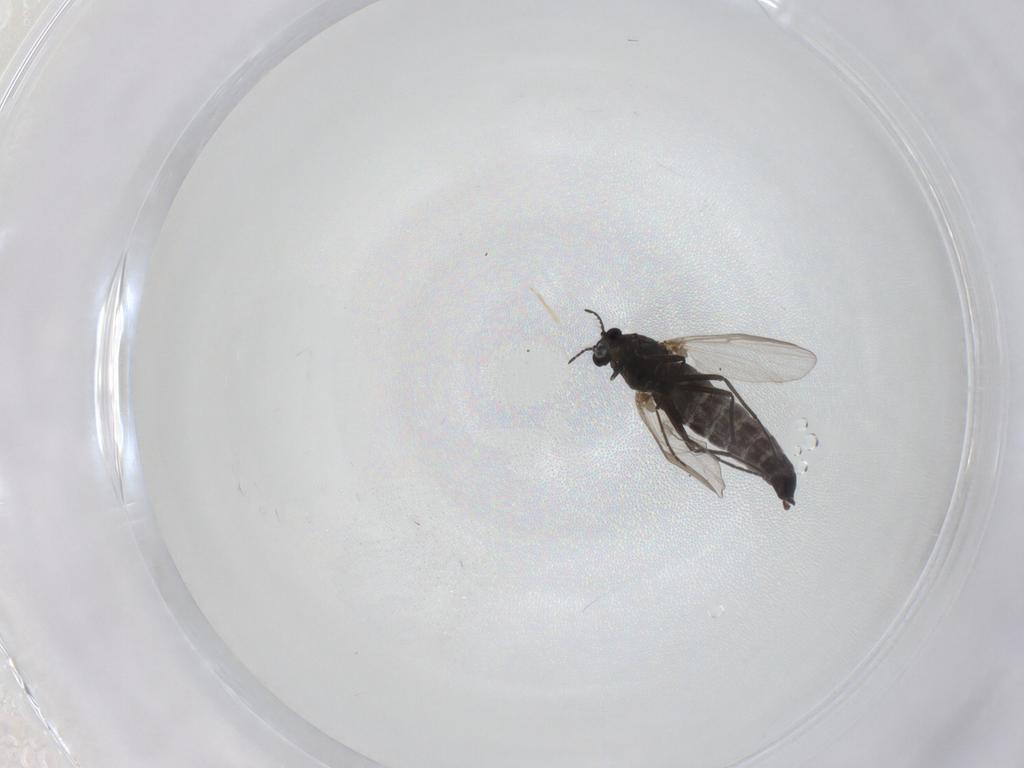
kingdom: Animalia
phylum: Arthropoda
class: Insecta
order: Diptera
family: Chironomidae
